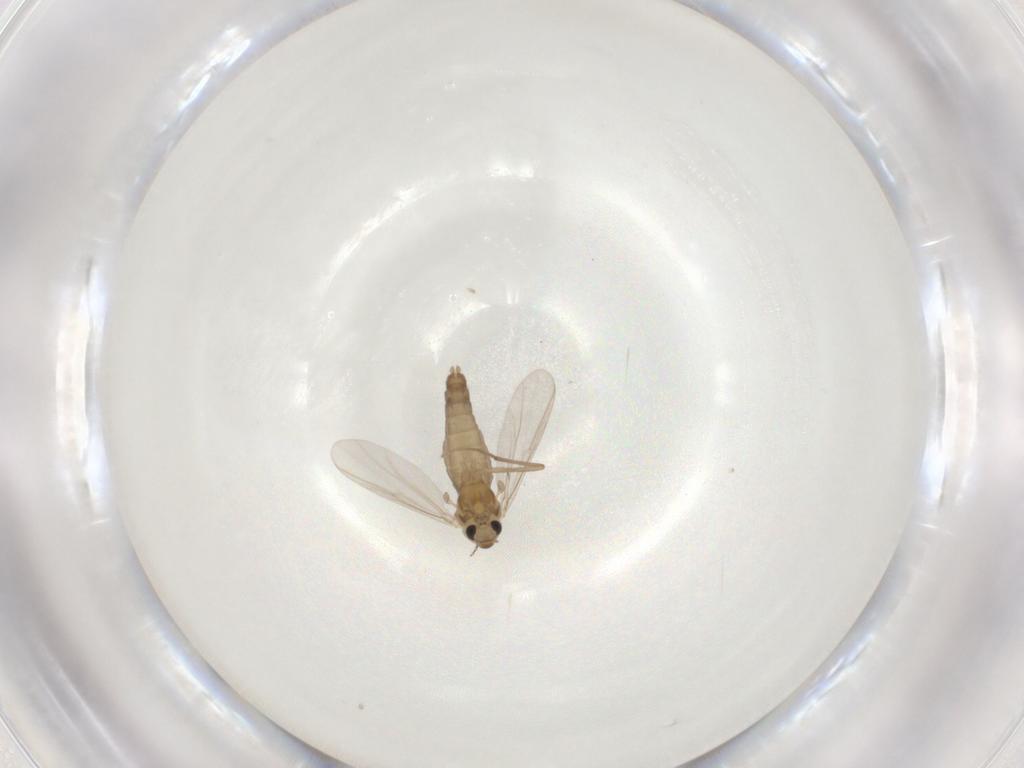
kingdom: Animalia
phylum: Arthropoda
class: Insecta
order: Diptera
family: Chironomidae
